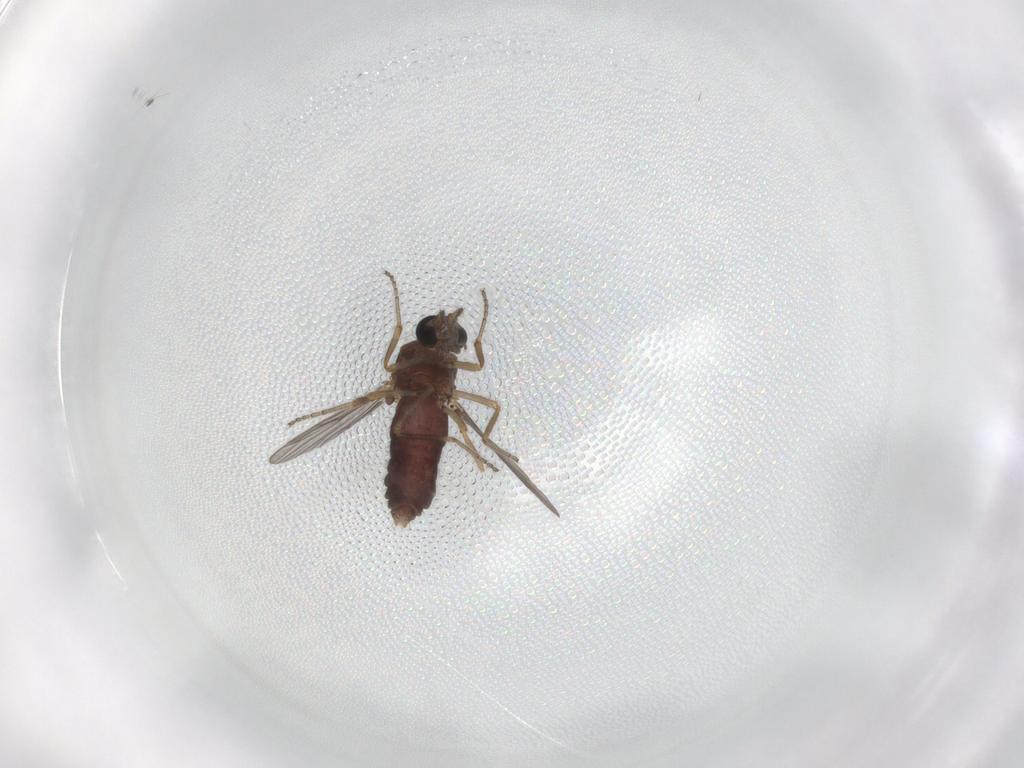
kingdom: Animalia
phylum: Arthropoda
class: Insecta
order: Diptera
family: Ceratopogonidae
